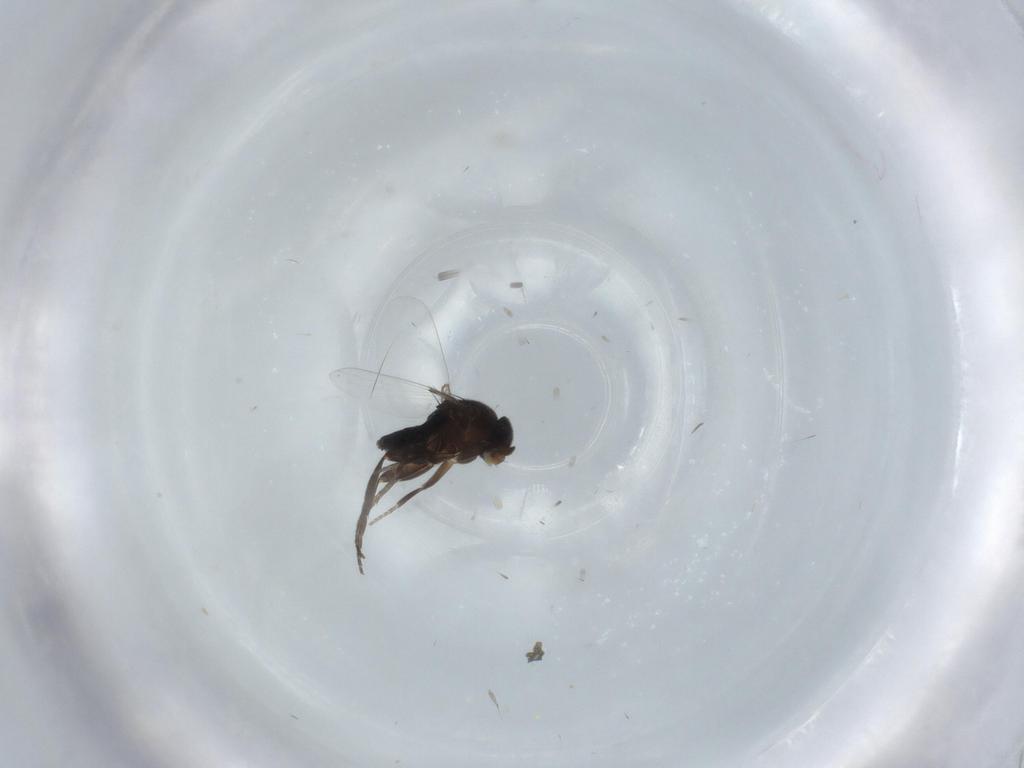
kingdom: Animalia
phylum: Arthropoda
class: Insecta
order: Diptera
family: Phoridae
